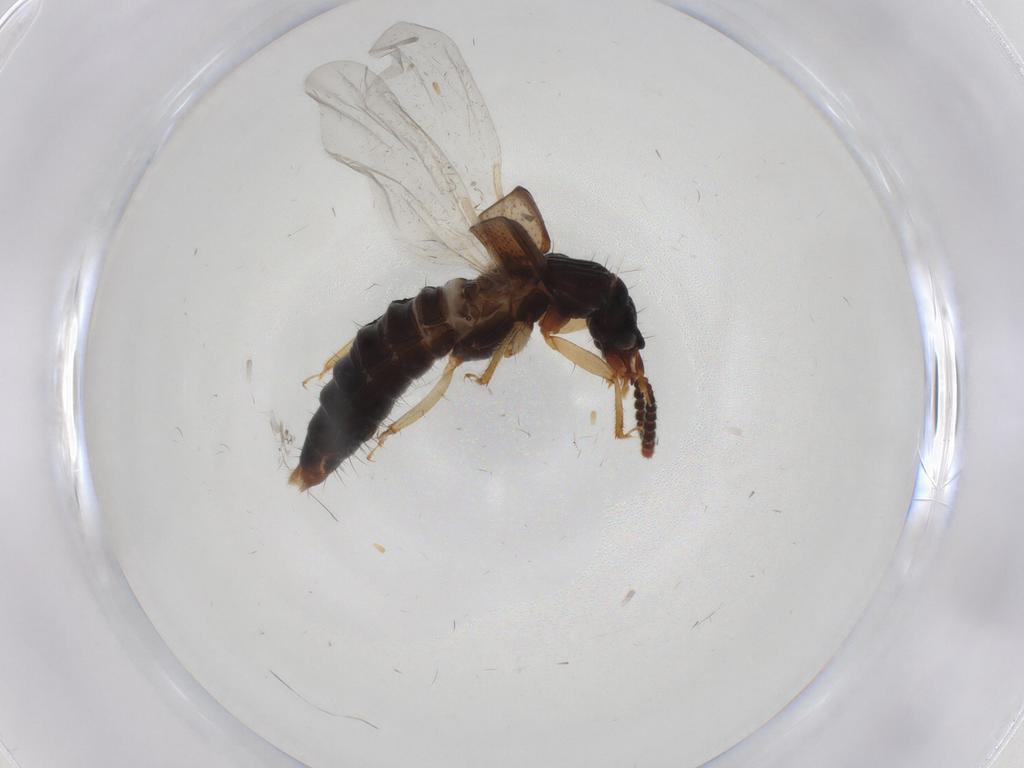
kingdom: Animalia
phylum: Arthropoda
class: Insecta
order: Coleoptera
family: Staphylinidae
